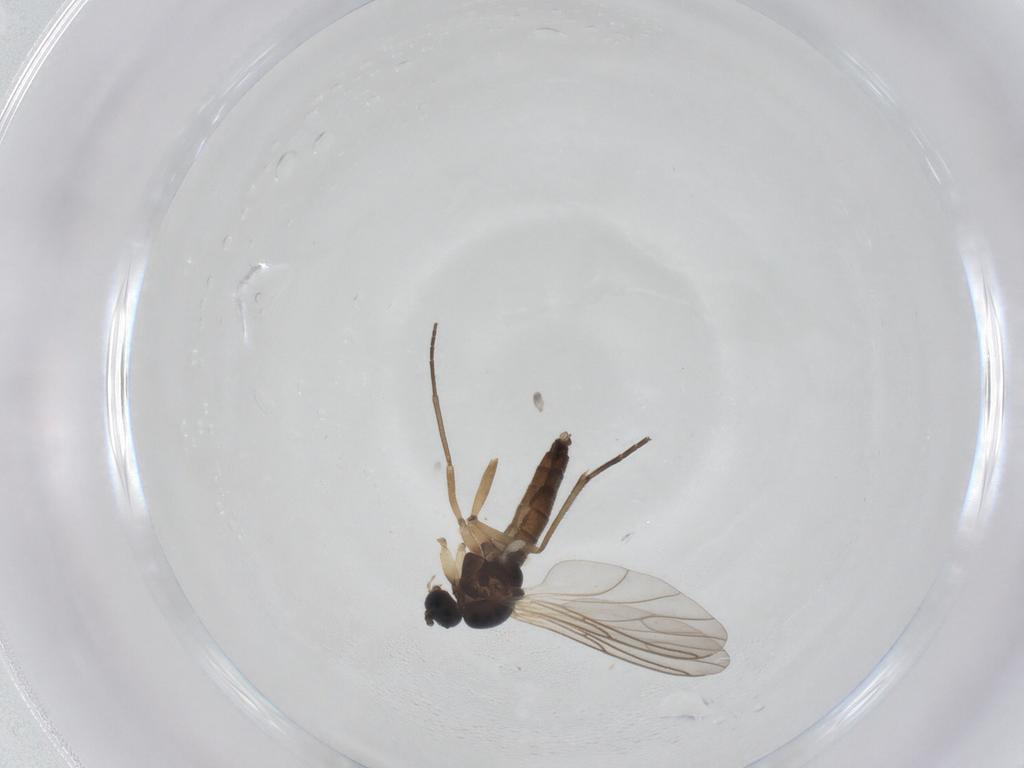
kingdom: Animalia
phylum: Arthropoda
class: Insecta
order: Diptera
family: Sciaridae
